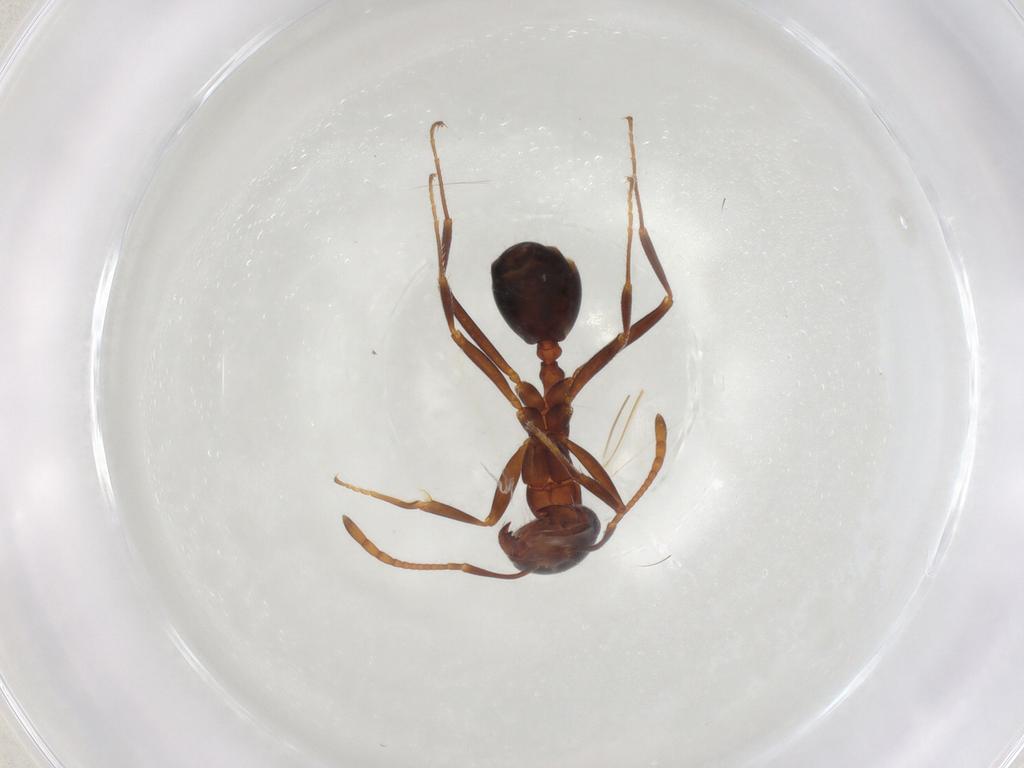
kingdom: Animalia
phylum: Arthropoda
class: Insecta
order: Hymenoptera
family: Formicidae
